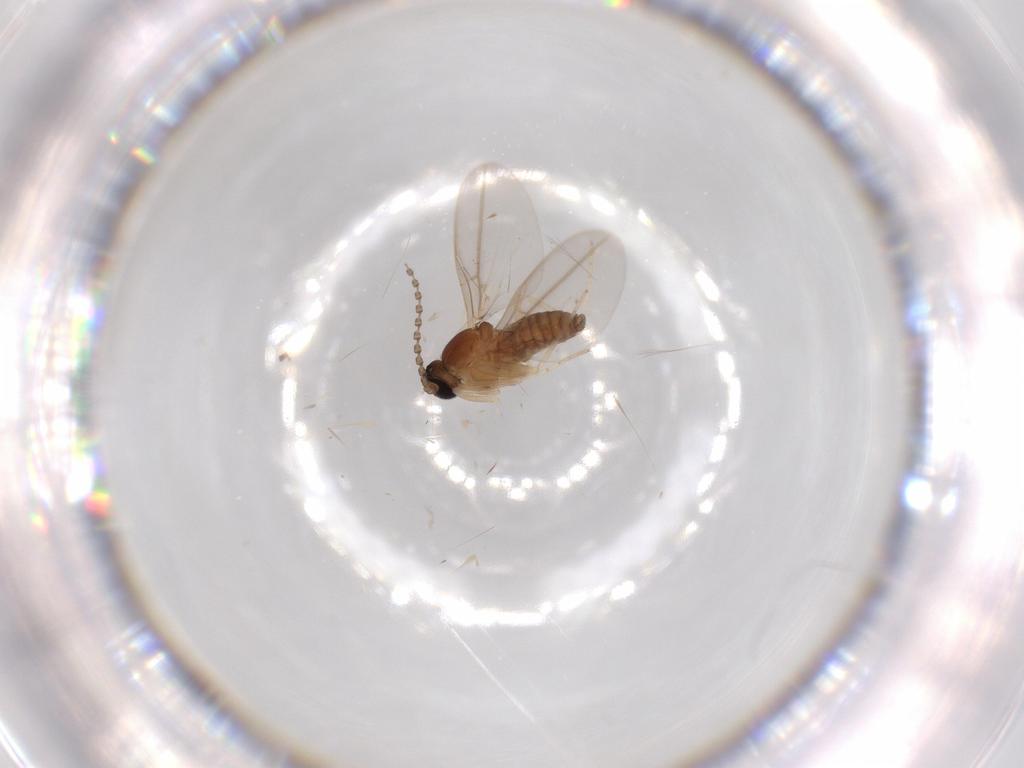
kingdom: Animalia
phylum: Arthropoda
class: Insecta
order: Diptera
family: Cecidomyiidae
